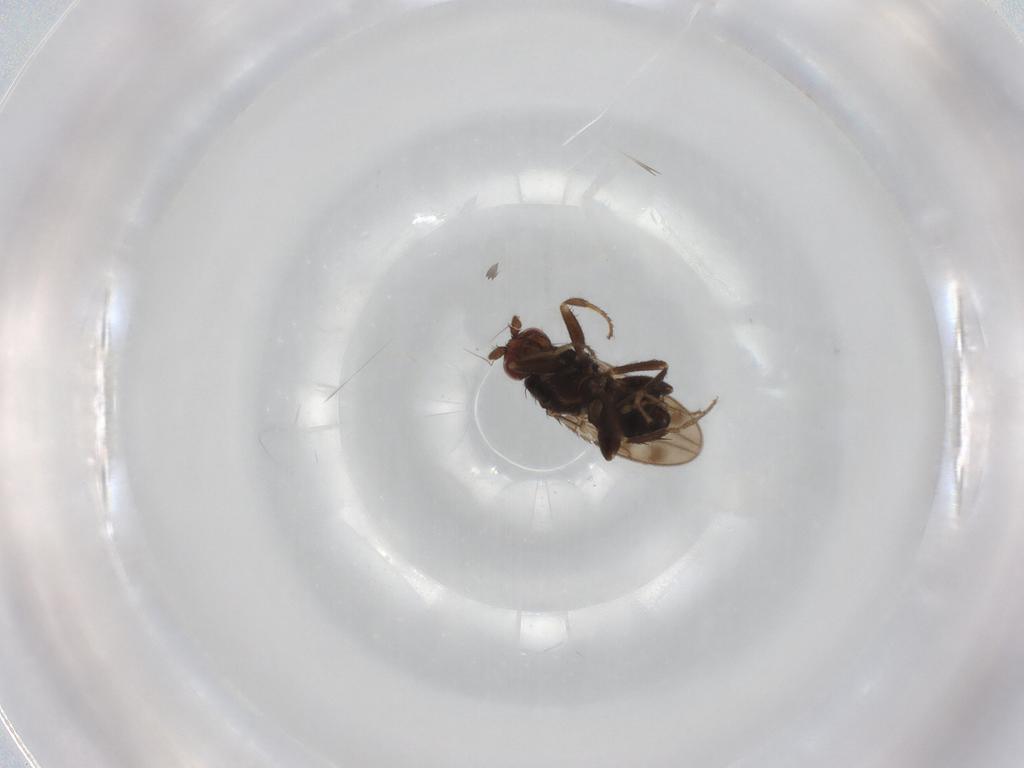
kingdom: Animalia
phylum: Arthropoda
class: Insecta
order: Diptera
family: Sphaeroceridae
